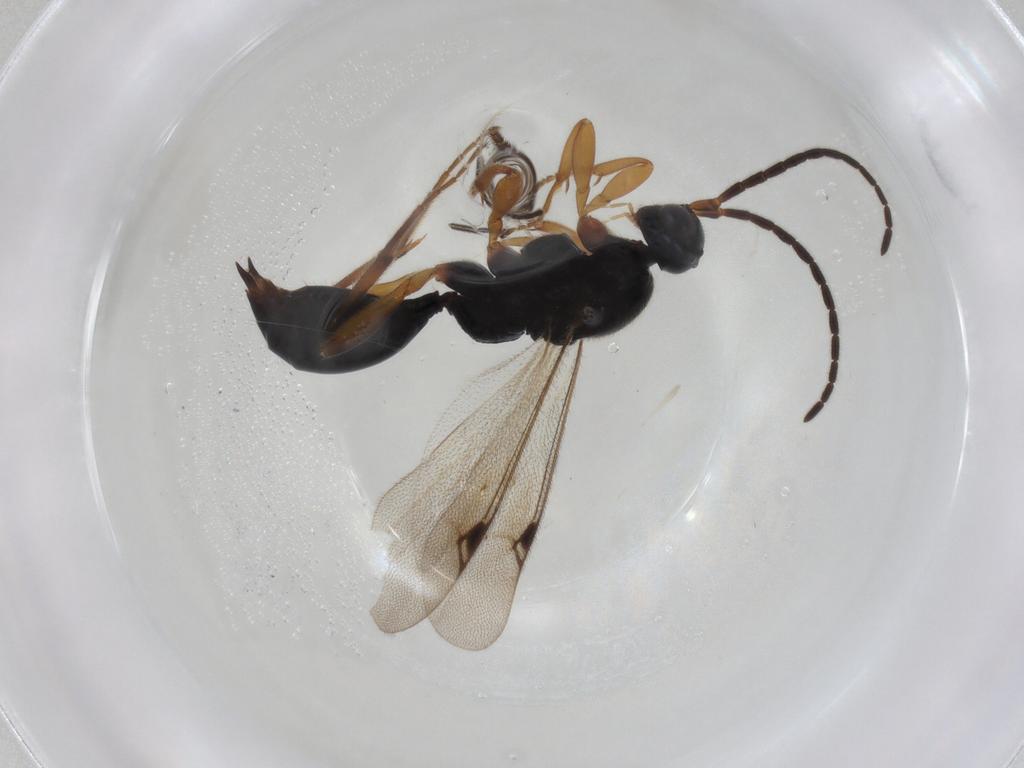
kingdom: Animalia
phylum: Arthropoda
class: Insecta
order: Hymenoptera
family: Proctotrupidae
